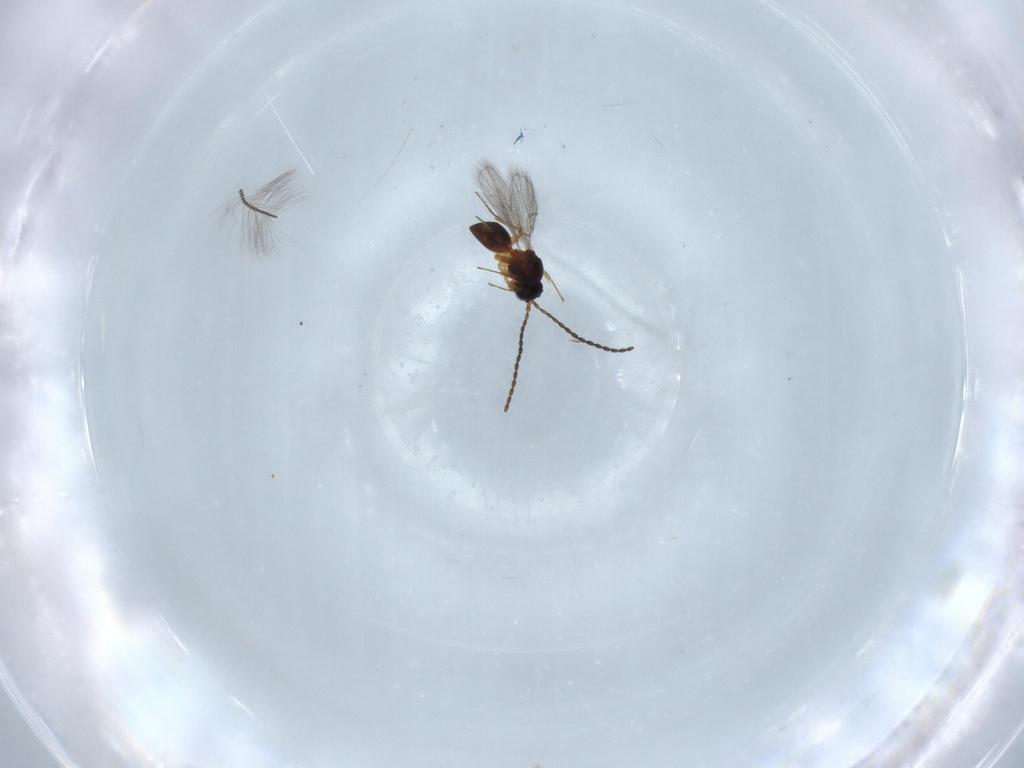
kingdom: Animalia
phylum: Arthropoda
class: Insecta
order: Hymenoptera
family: Figitidae
